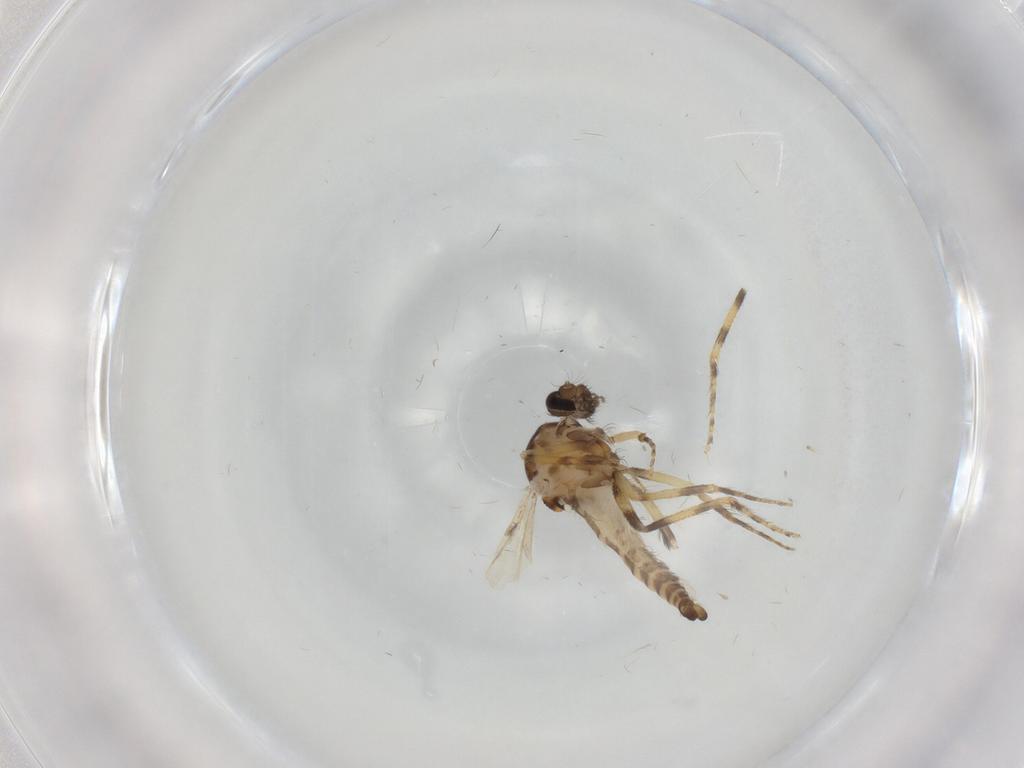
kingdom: Animalia
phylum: Arthropoda
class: Insecta
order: Diptera
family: Ceratopogonidae
